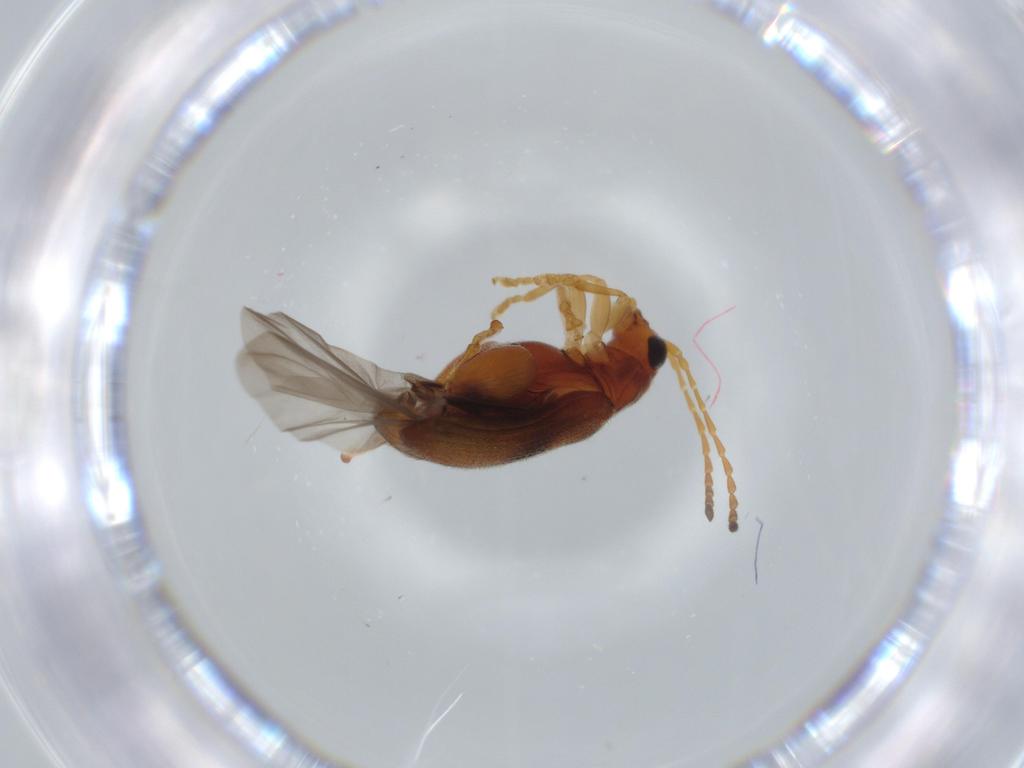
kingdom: Animalia
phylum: Arthropoda
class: Insecta
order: Coleoptera
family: Chrysomelidae
